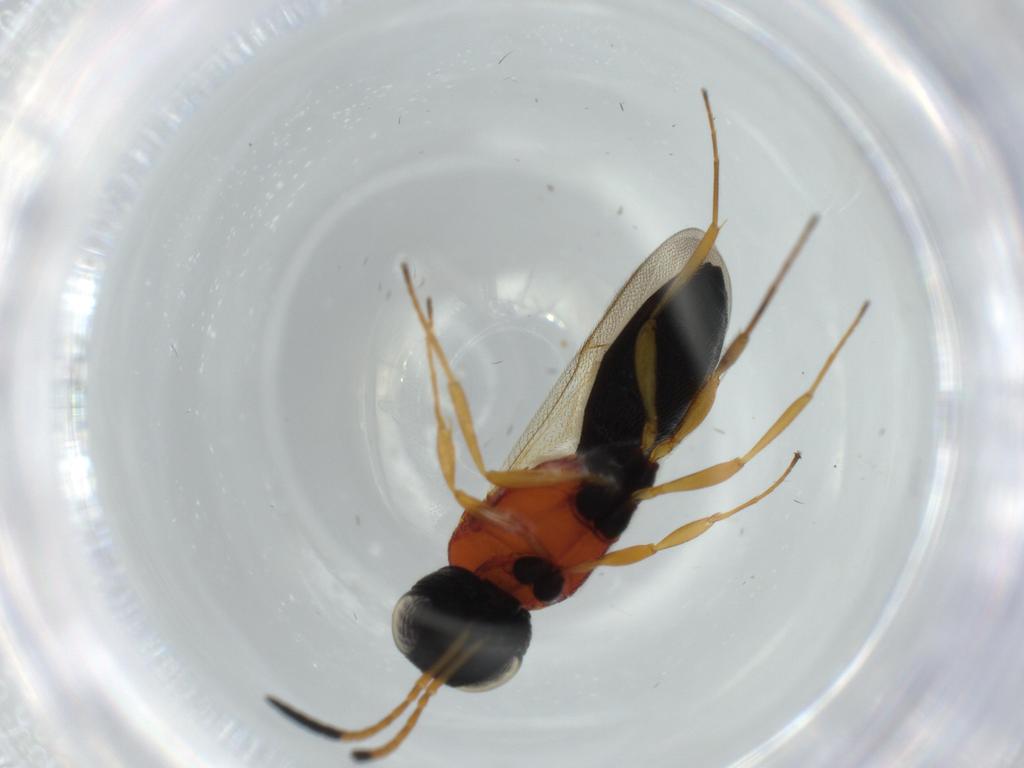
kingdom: Animalia
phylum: Arthropoda
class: Insecta
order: Hymenoptera
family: Scelionidae
